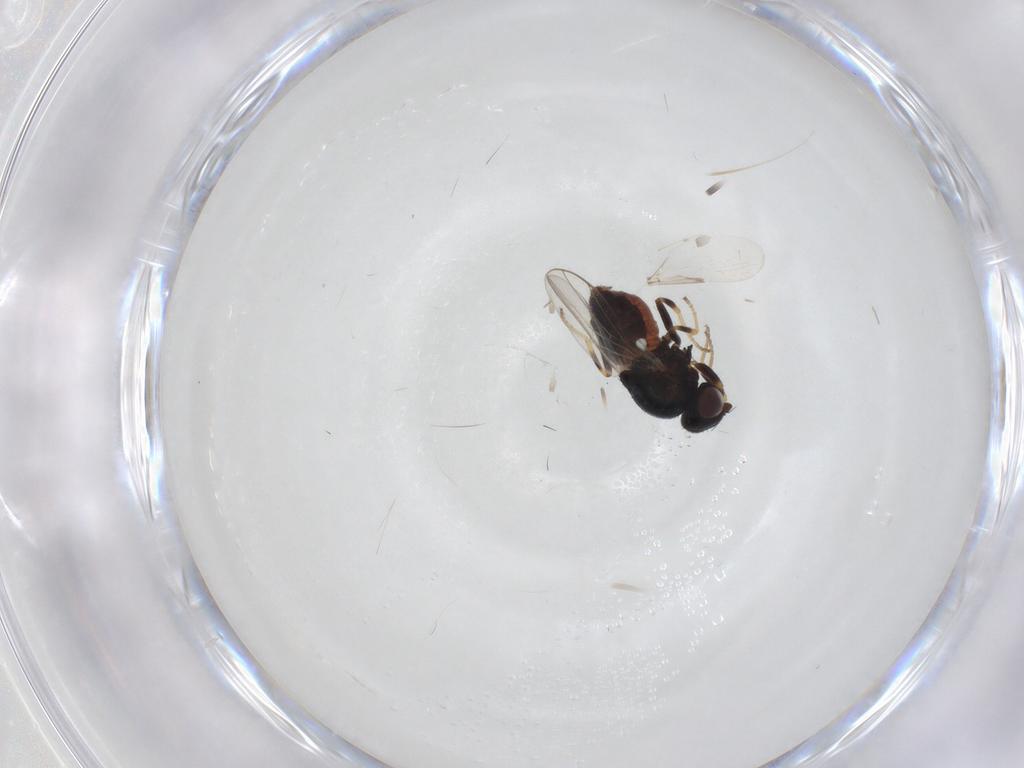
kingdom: Animalia
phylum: Arthropoda
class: Insecta
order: Diptera
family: Chloropidae
